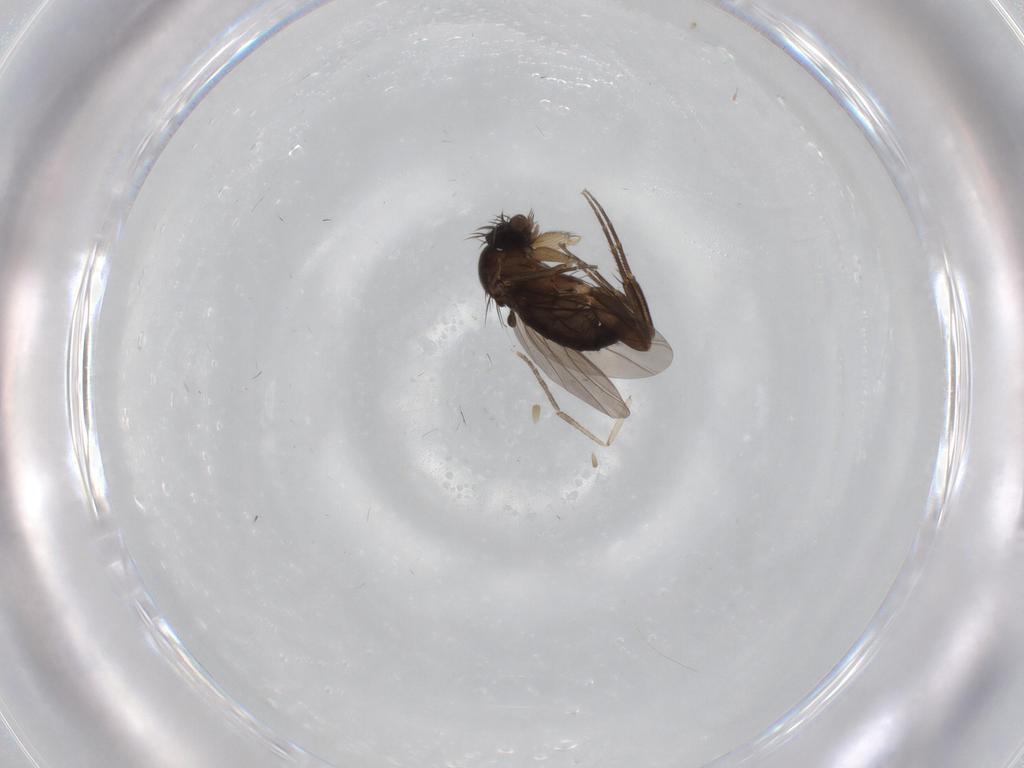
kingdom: Animalia
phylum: Arthropoda
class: Insecta
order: Diptera
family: Phoridae
